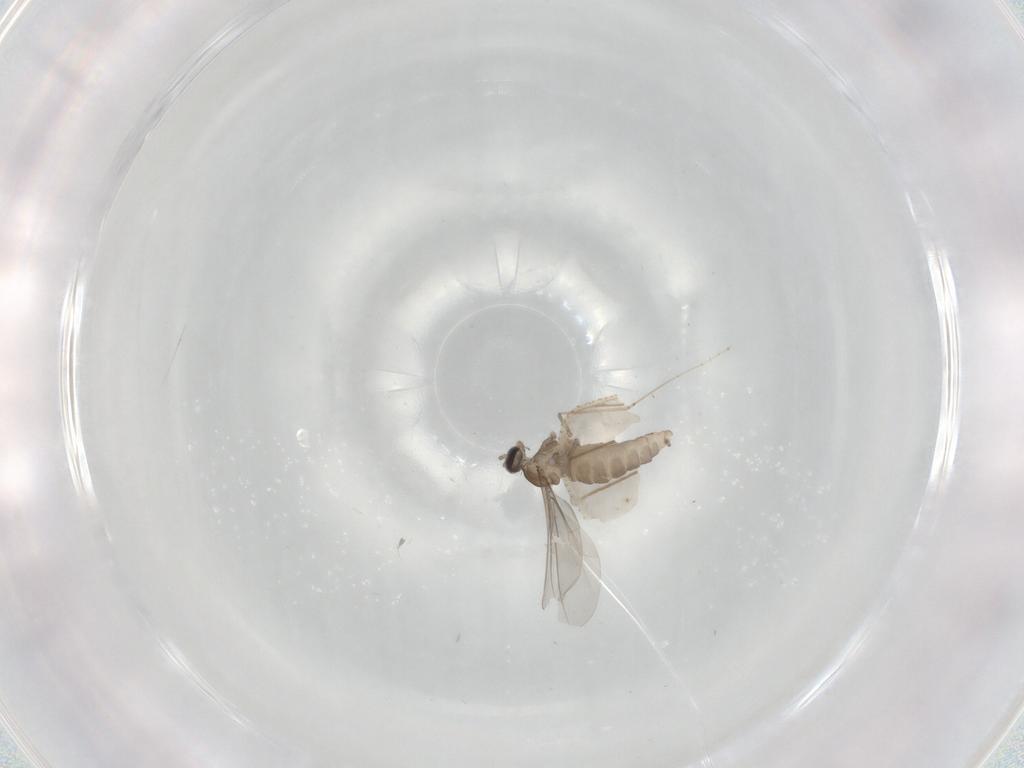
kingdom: Animalia
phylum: Arthropoda
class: Insecta
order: Diptera
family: Cecidomyiidae
